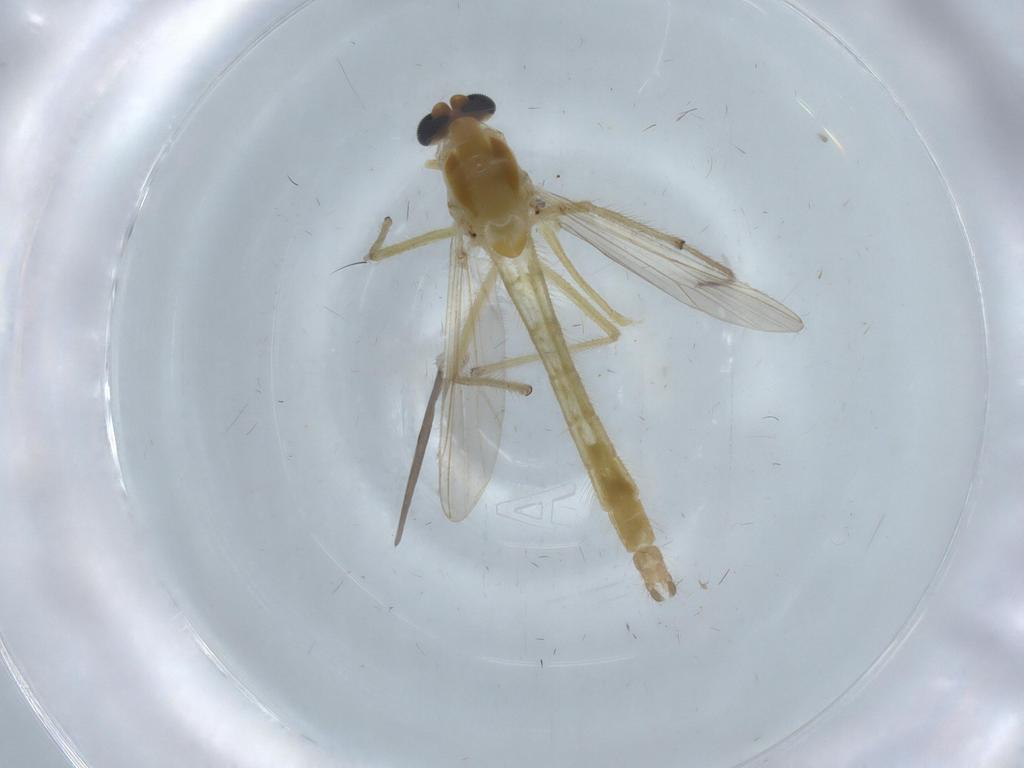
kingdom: Animalia
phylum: Arthropoda
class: Insecta
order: Diptera
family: Chironomidae
